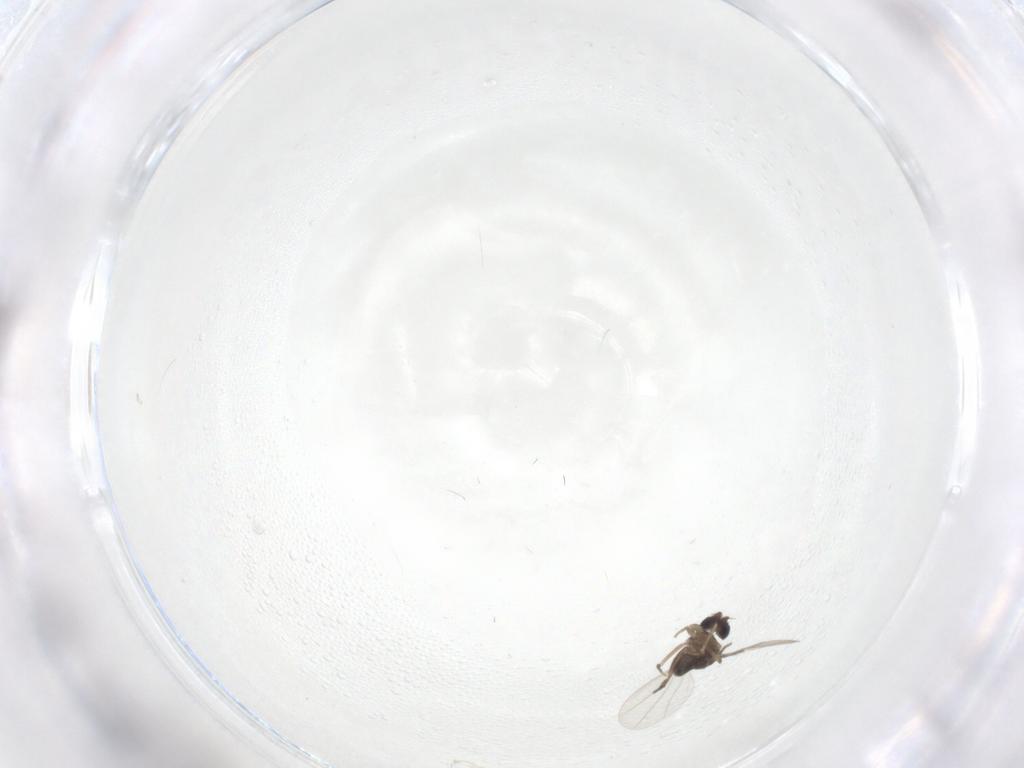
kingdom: Animalia
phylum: Arthropoda
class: Insecta
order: Diptera
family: Phoridae
